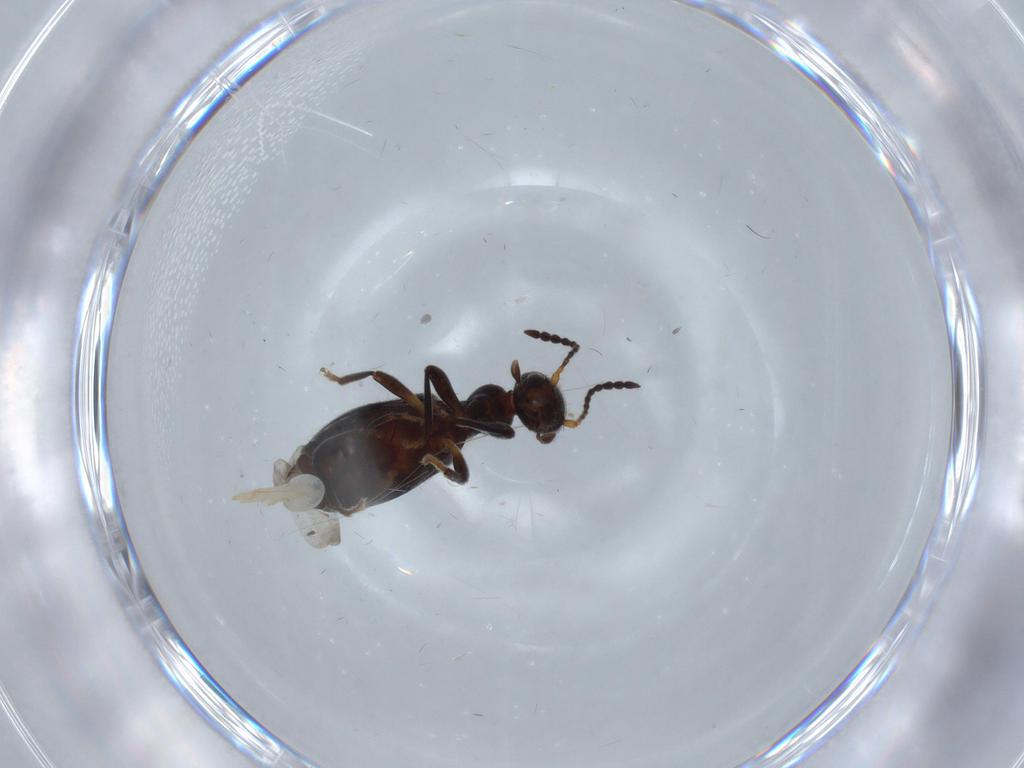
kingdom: Animalia
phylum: Arthropoda
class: Insecta
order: Coleoptera
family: Anthicidae
